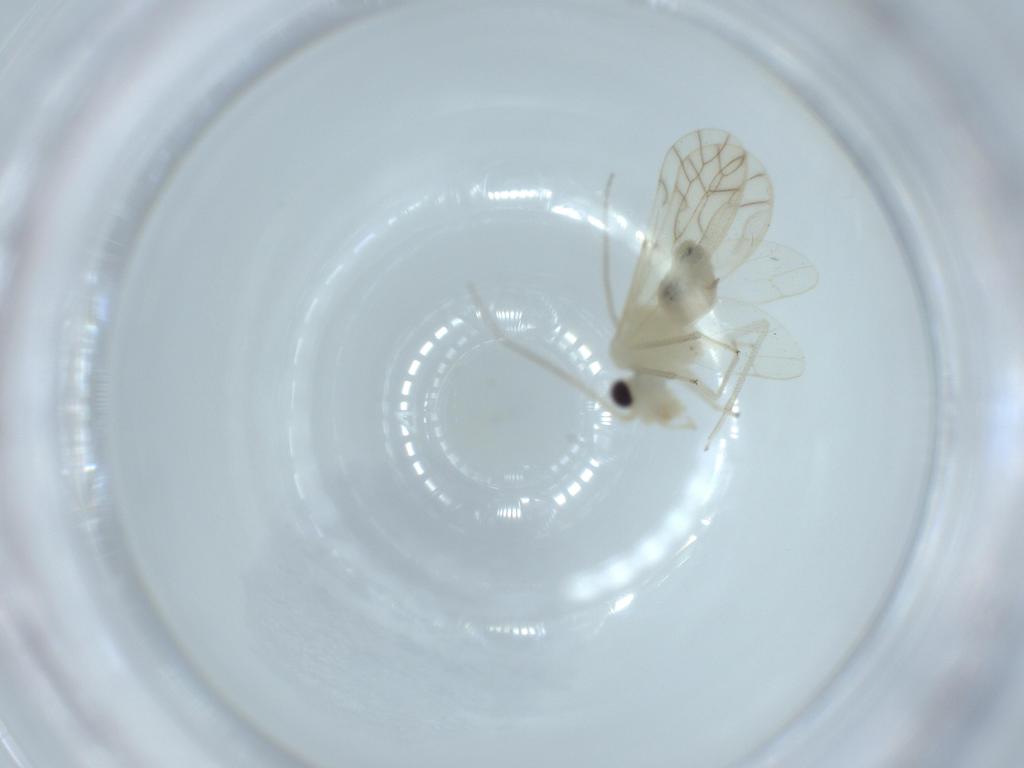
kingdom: Animalia
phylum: Arthropoda
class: Insecta
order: Psocodea
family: Caeciliusidae
